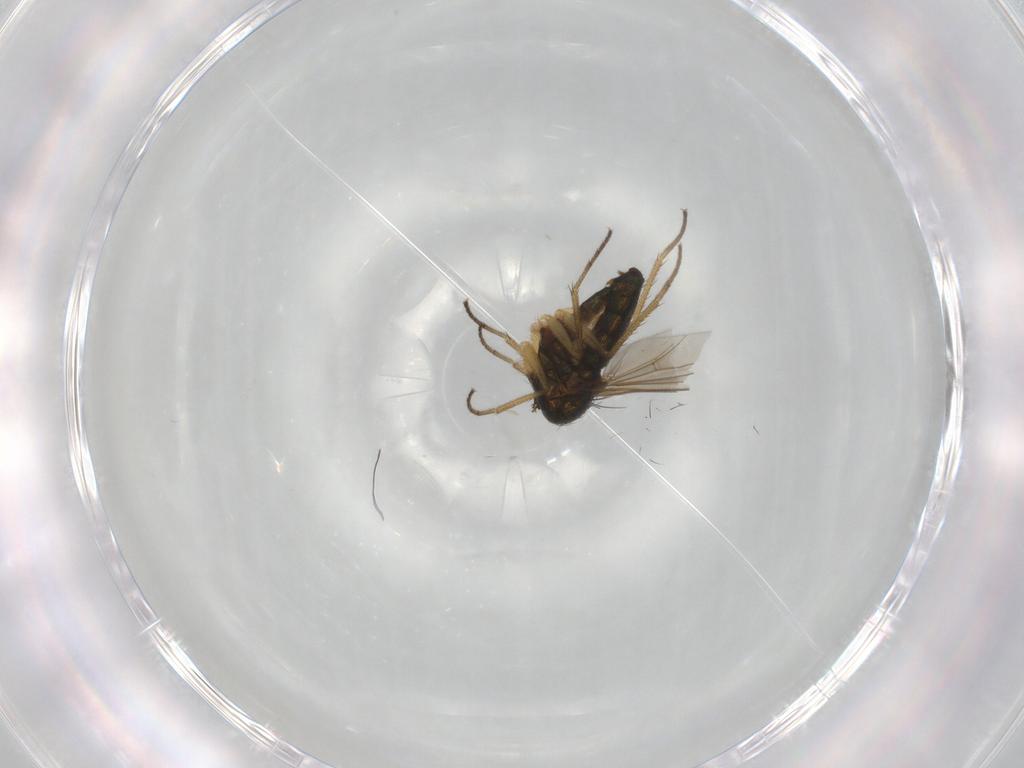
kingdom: Animalia
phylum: Arthropoda
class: Insecta
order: Diptera
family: Dolichopodidae
